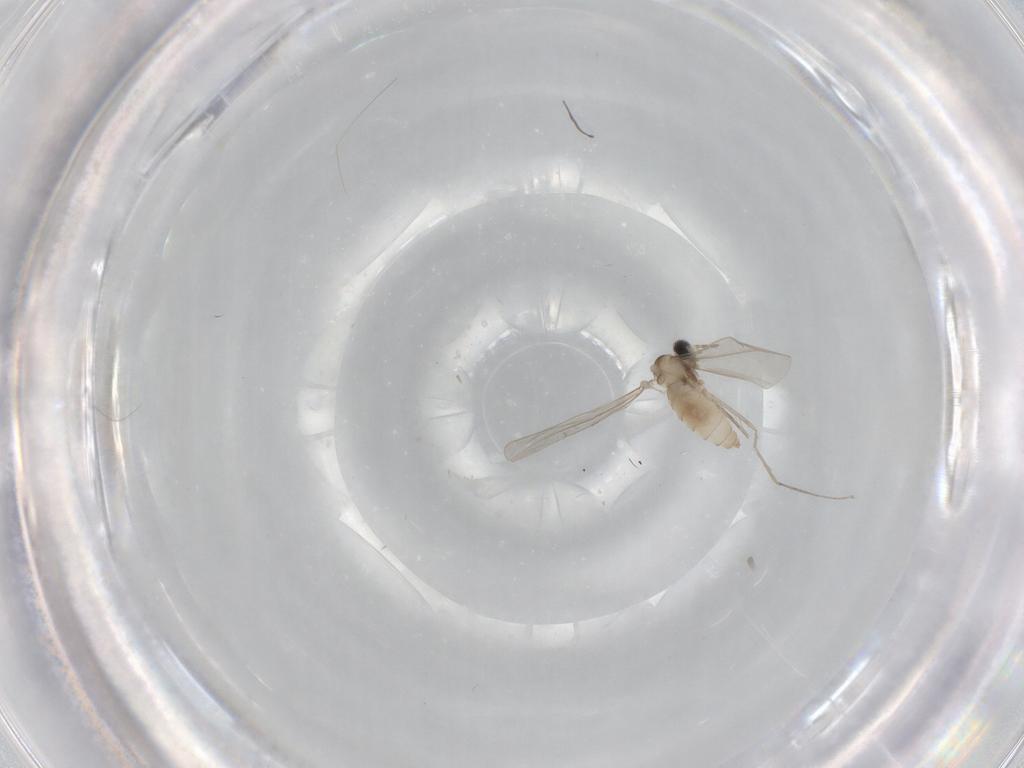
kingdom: Animalia
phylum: Arthropoda
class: Insecta
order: Diptera
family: Cecidomyiidae
